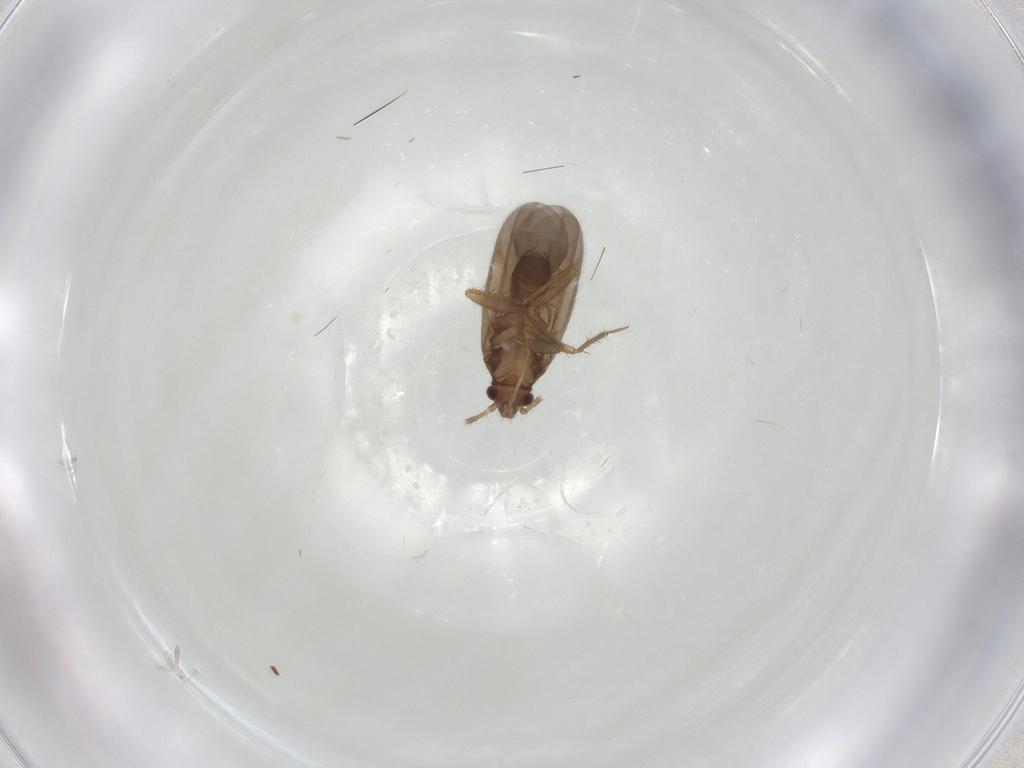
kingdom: Animalia
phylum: Arthropoda
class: Insecta
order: Hemiptera
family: Ceratocombidae
